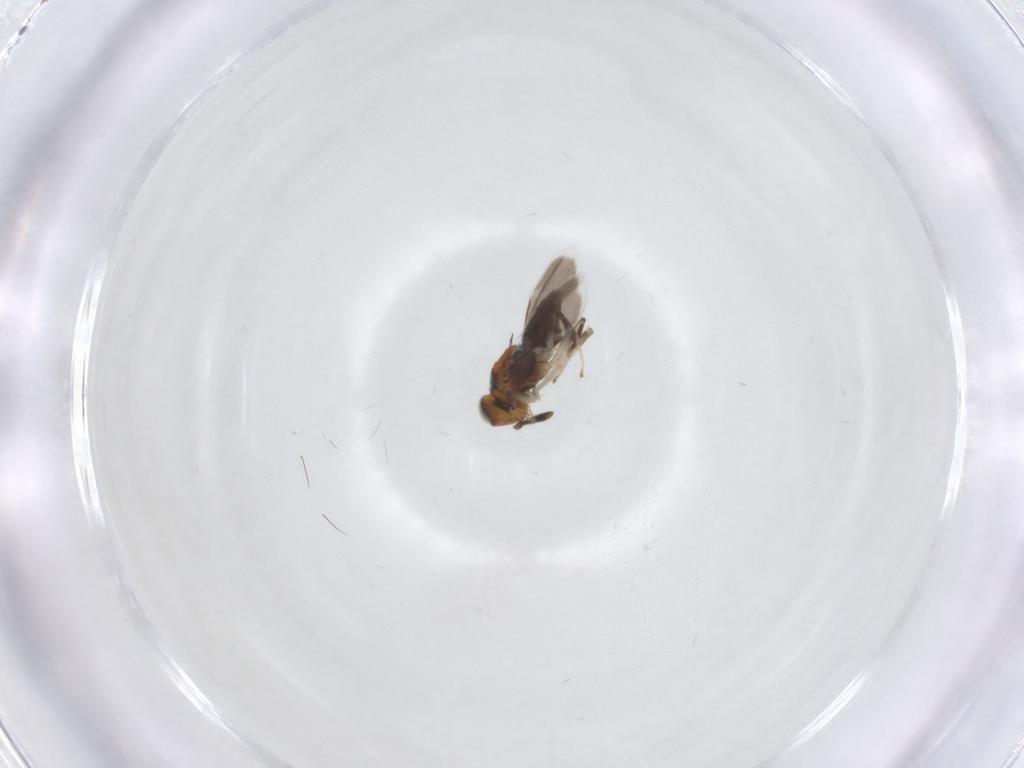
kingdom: Animalia
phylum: Arthropoda
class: Insecta
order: Hymenoptera
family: Encyrtidae
